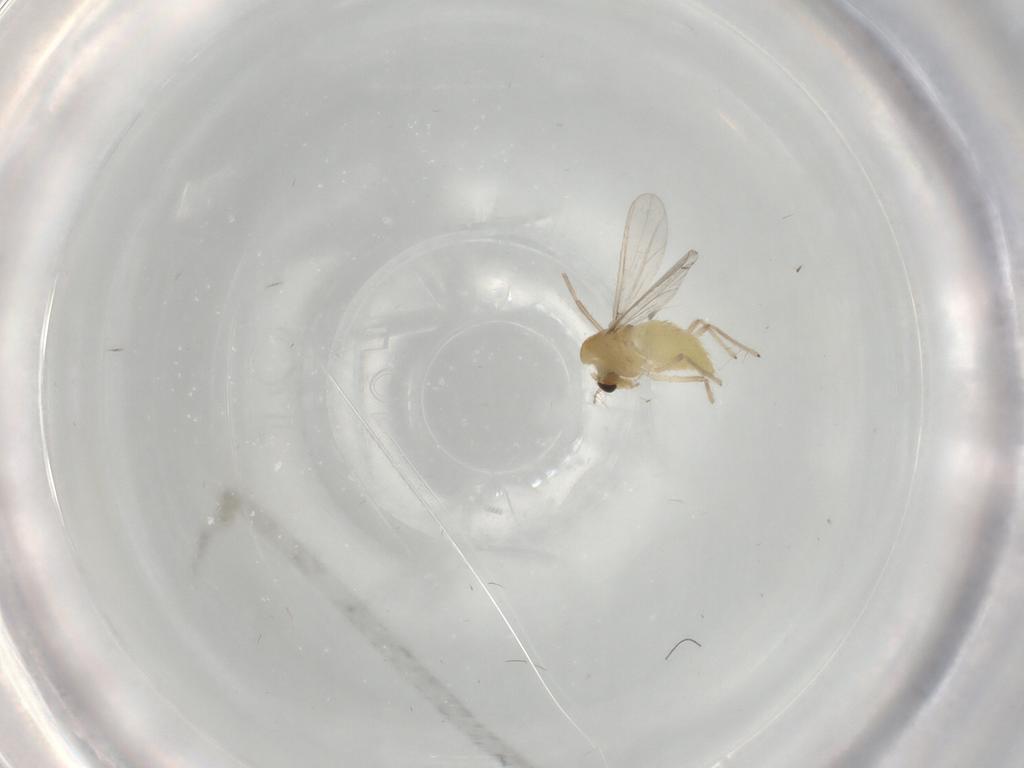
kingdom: Animalia
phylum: Arthropoda
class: Insecta
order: Diptera
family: Chironomidae
